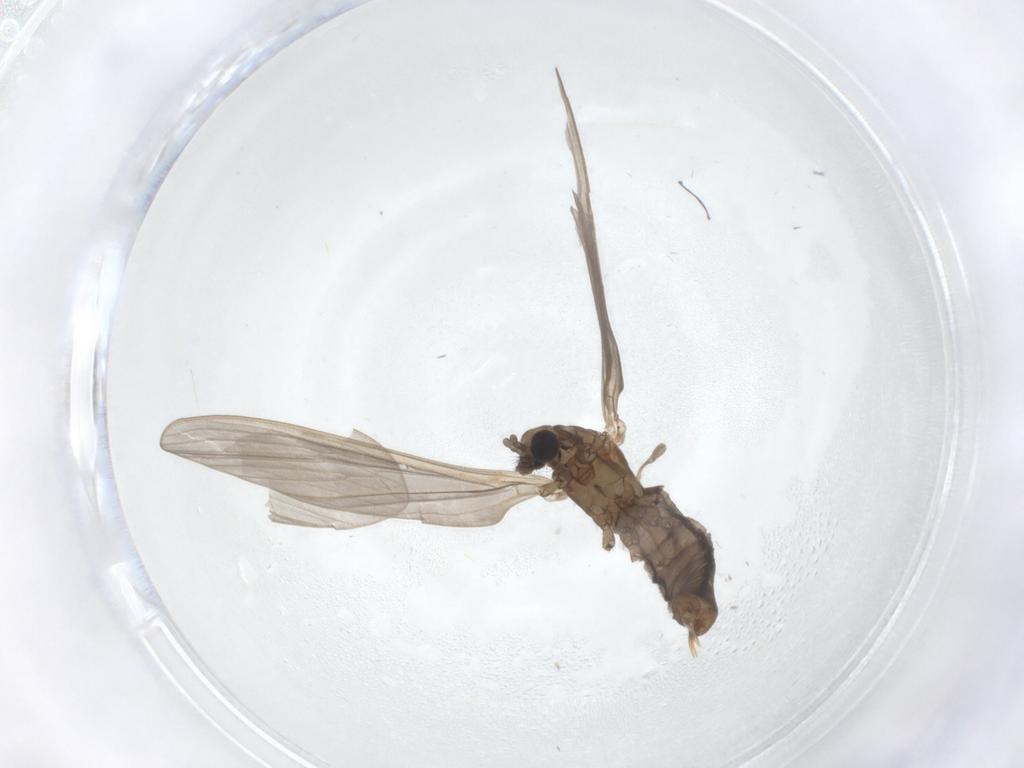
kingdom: Animalia
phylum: Arthropoda
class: Insecta
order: Diptera
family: Limoniidae
